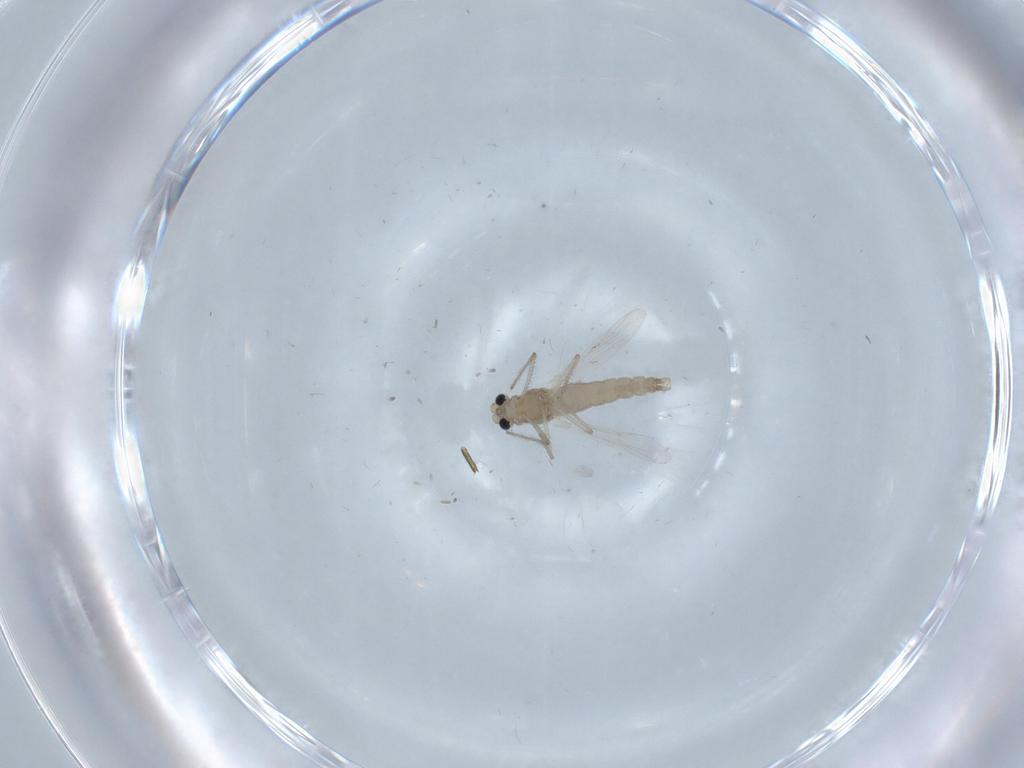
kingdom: Animalia
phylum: Arthropoda
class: Insecta
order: Diptera
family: Chironomidae
